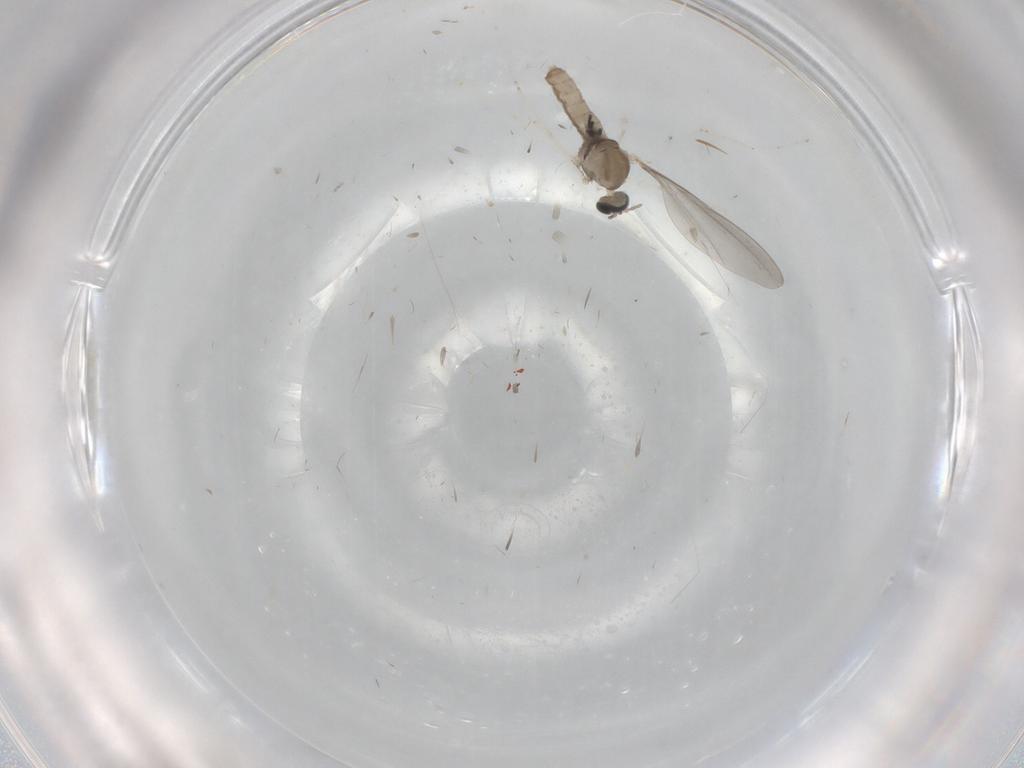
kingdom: Animalia
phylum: Arthropoda
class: Insecta
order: Diptera
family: Cecidomyiidae
